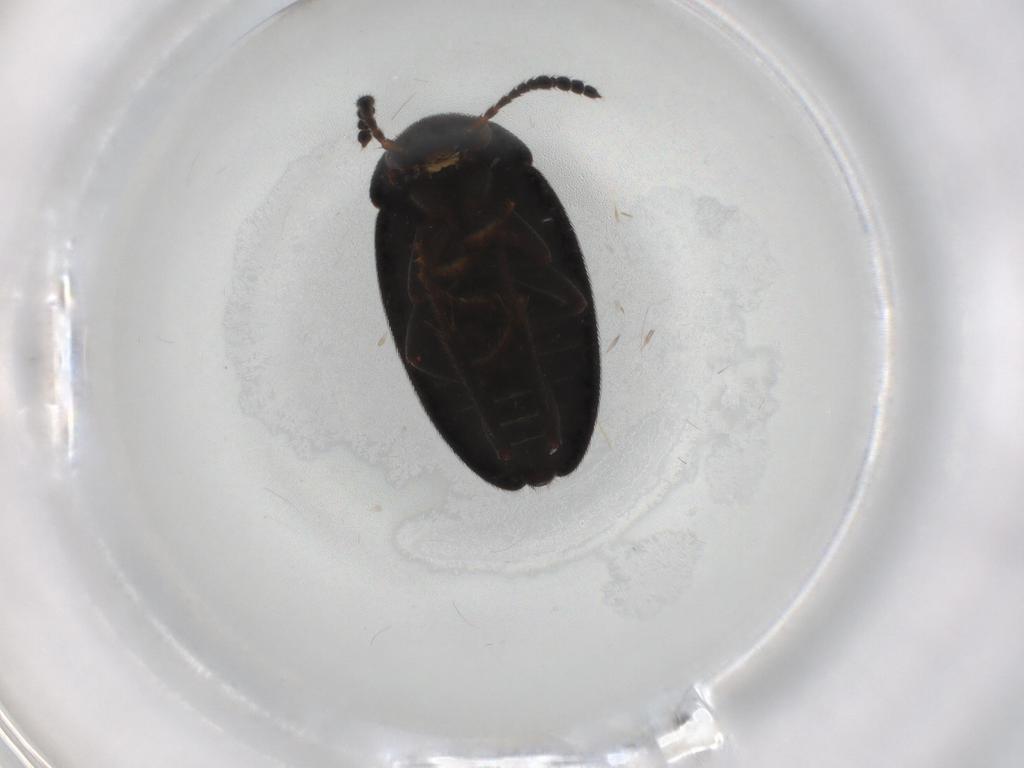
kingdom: Animalia
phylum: Arthropoda
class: Insecta
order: Coleoptera
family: Leiodidae
